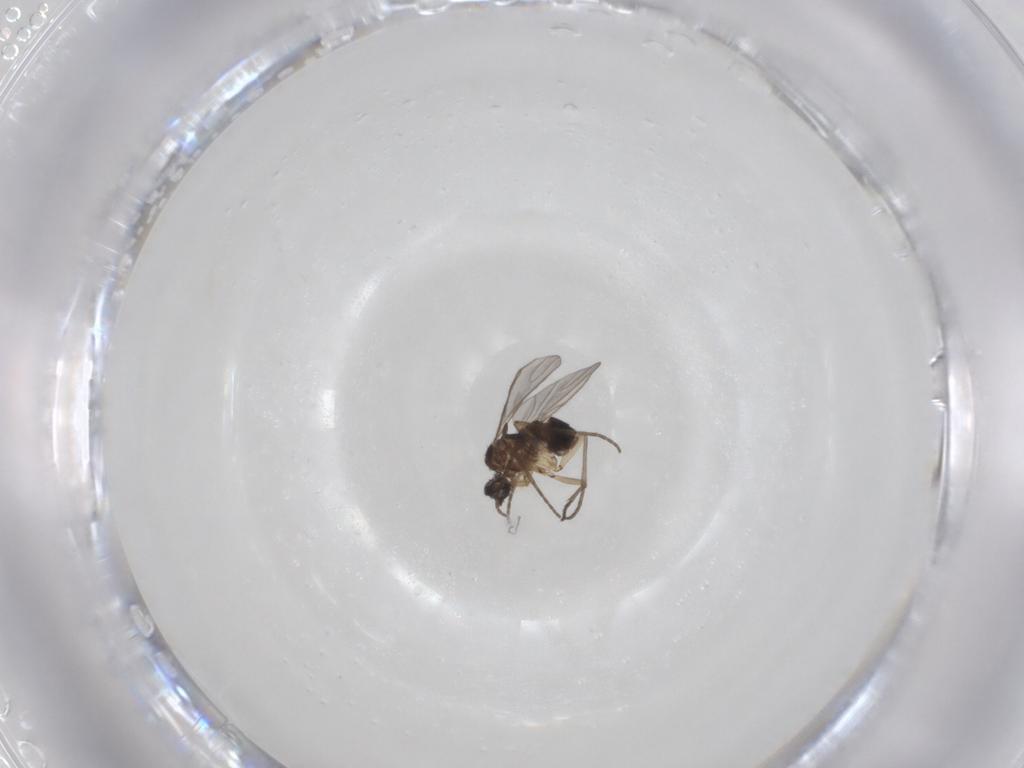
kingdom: Animalia
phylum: Arthropoda
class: Insecta
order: Diptera
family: Sciaridae
